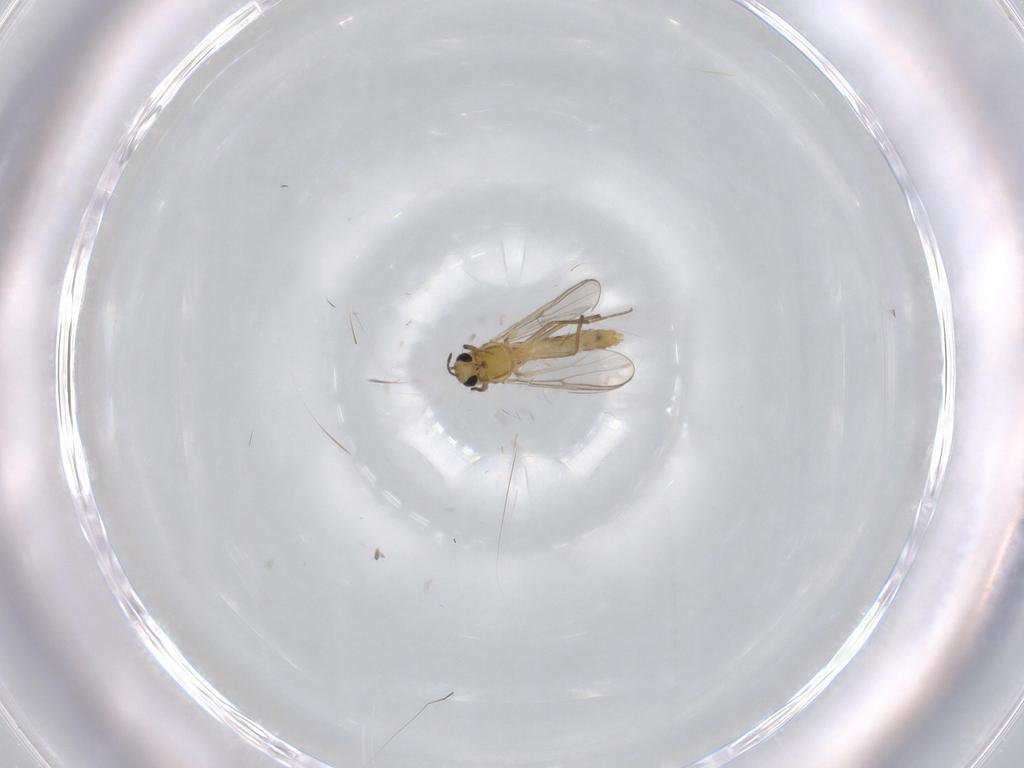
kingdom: Animalia
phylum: Arthropoda
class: Insecta
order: Diptera
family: Chironomidae
